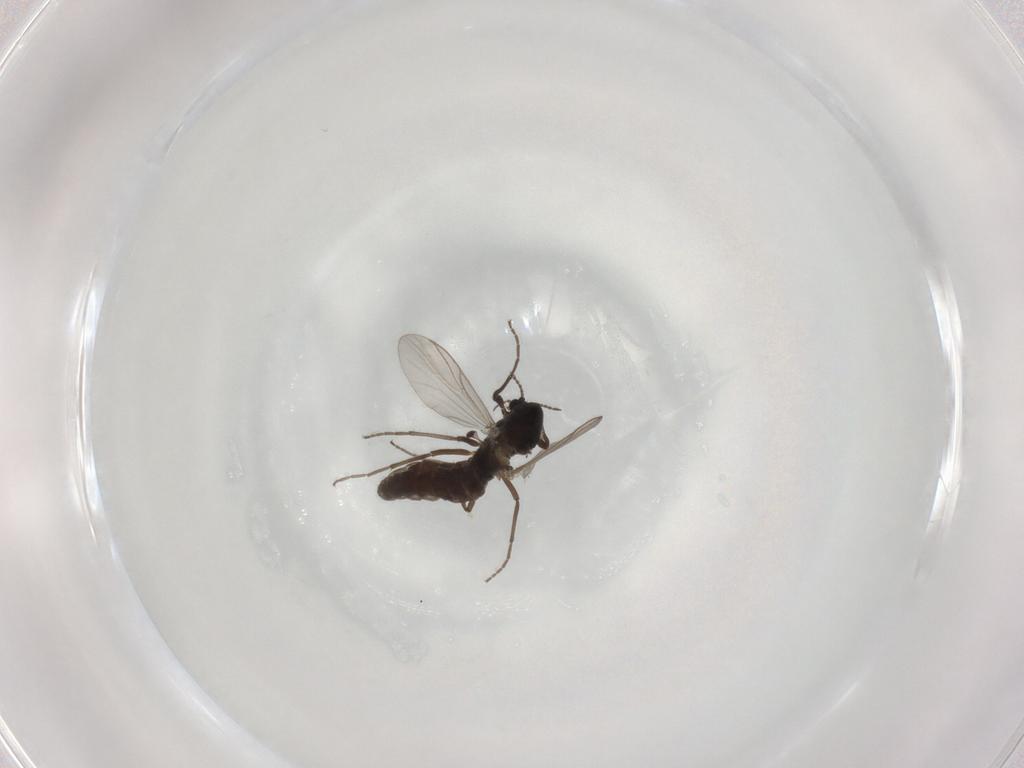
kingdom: Animalia
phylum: Arthropoda
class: Insecta
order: Diptera
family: Chironomidae
